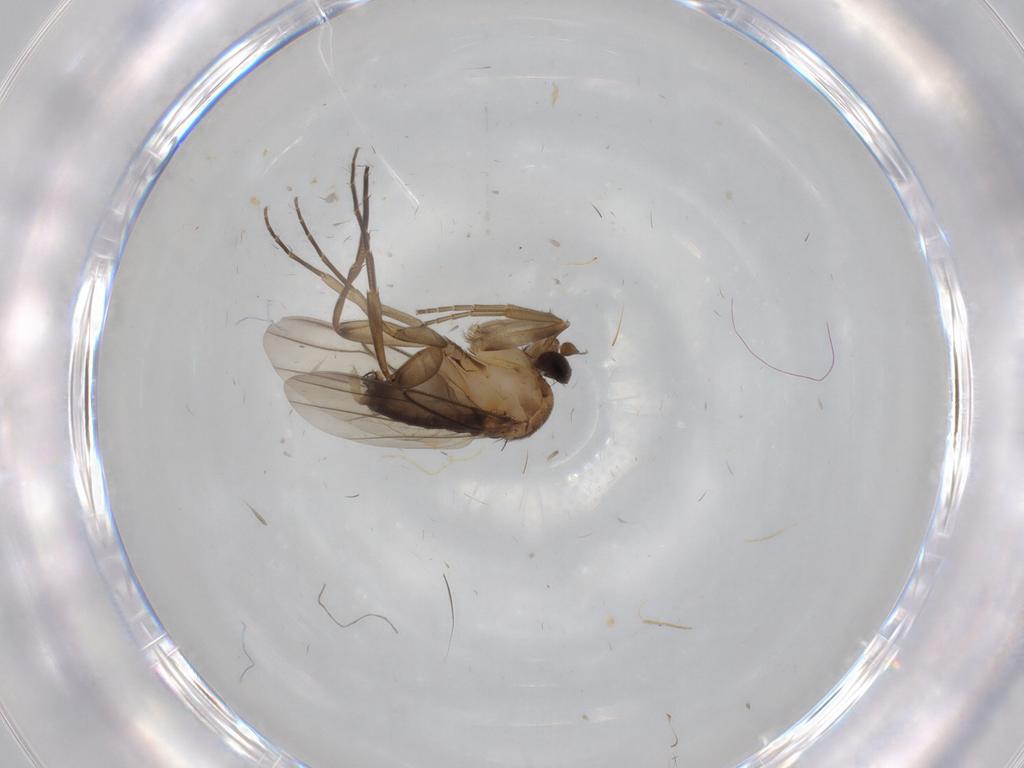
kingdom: Animalia
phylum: Arthropoda
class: Insecta
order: Diptera
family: Phoridae
